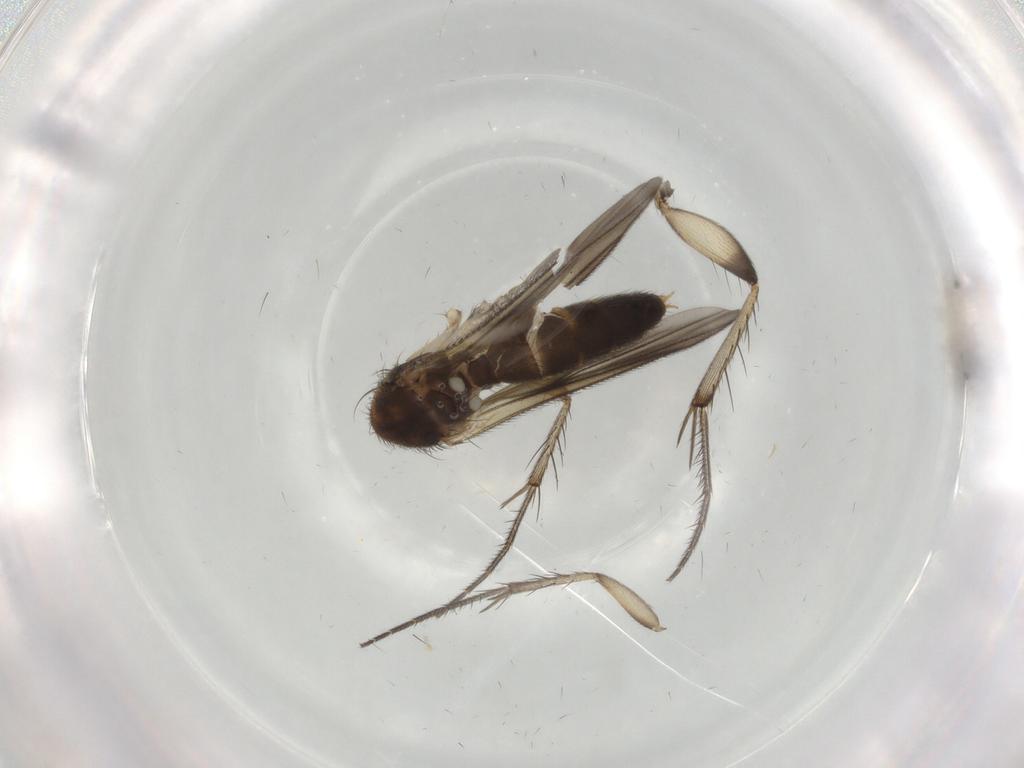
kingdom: Animalia
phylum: Arthropoda
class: Insecta
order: Diptera
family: Mycetophilidae
